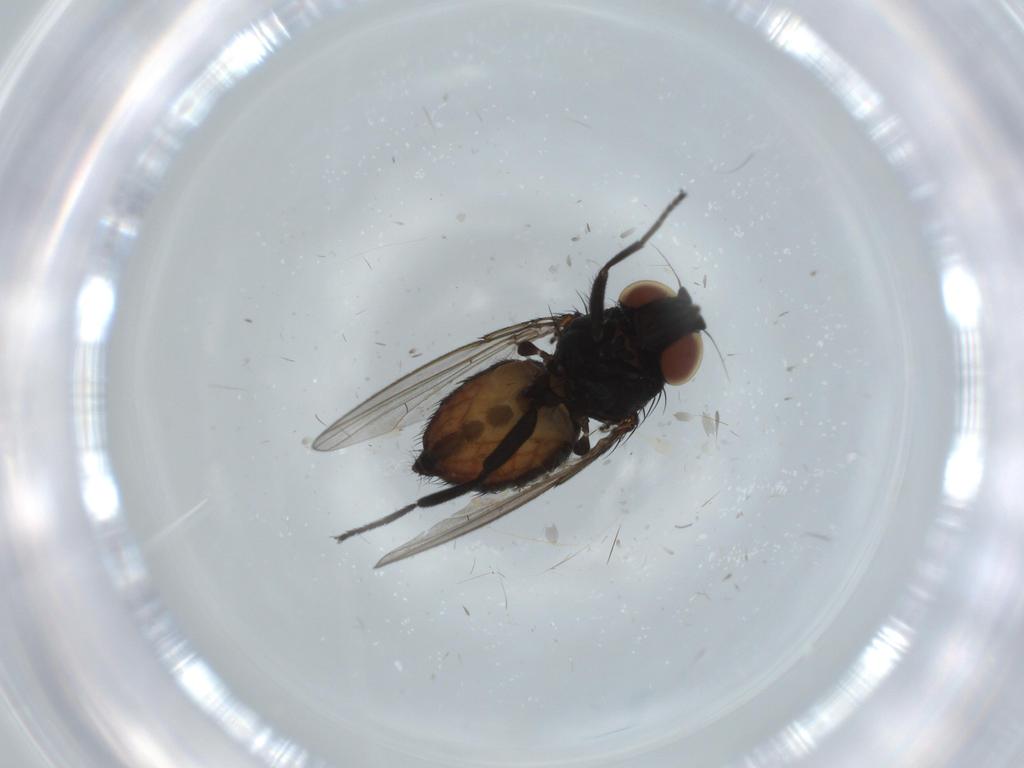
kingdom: Animalia
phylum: Arthropoda
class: Insecta
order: Diptera
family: Milichiidae
